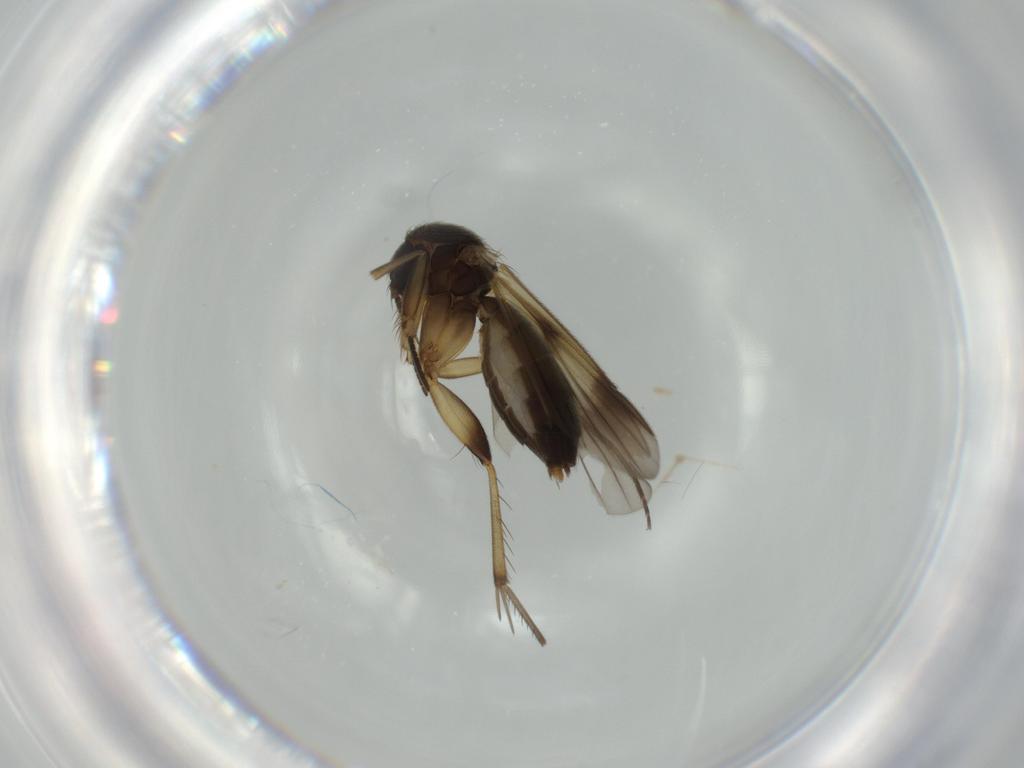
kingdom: Animalia
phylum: Arthropoda
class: Insecta
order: Diptera
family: Mycetophilidae
